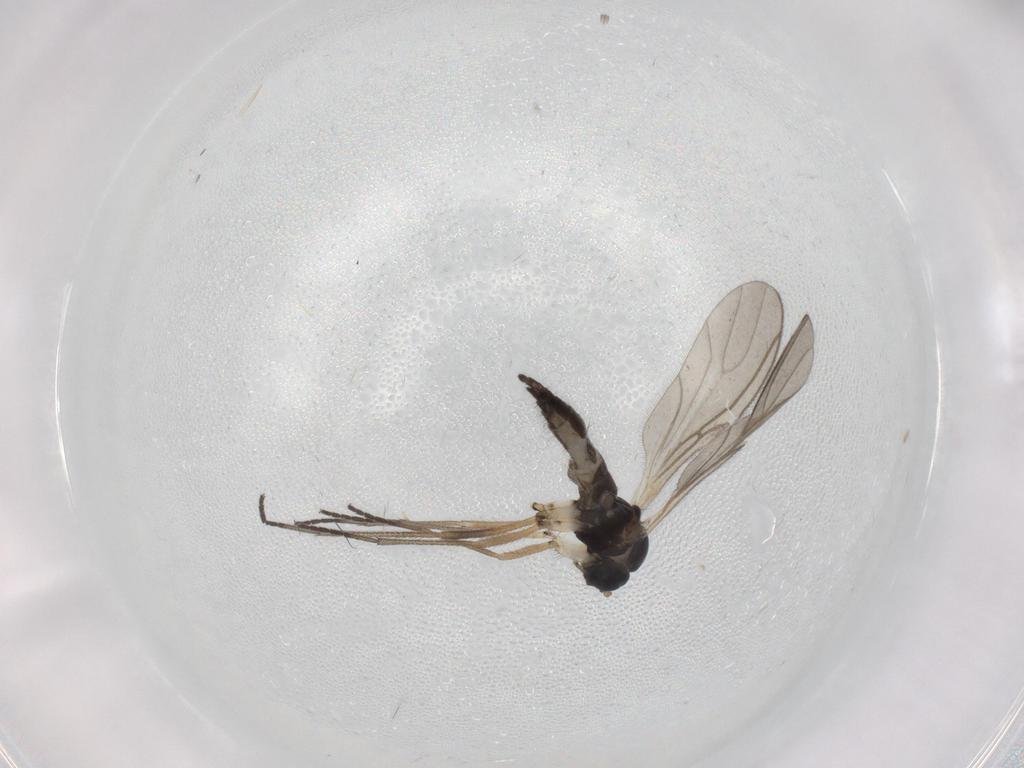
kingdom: Animalia
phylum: Arthropoda
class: Insecta
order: Diptera
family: Sciaridae
